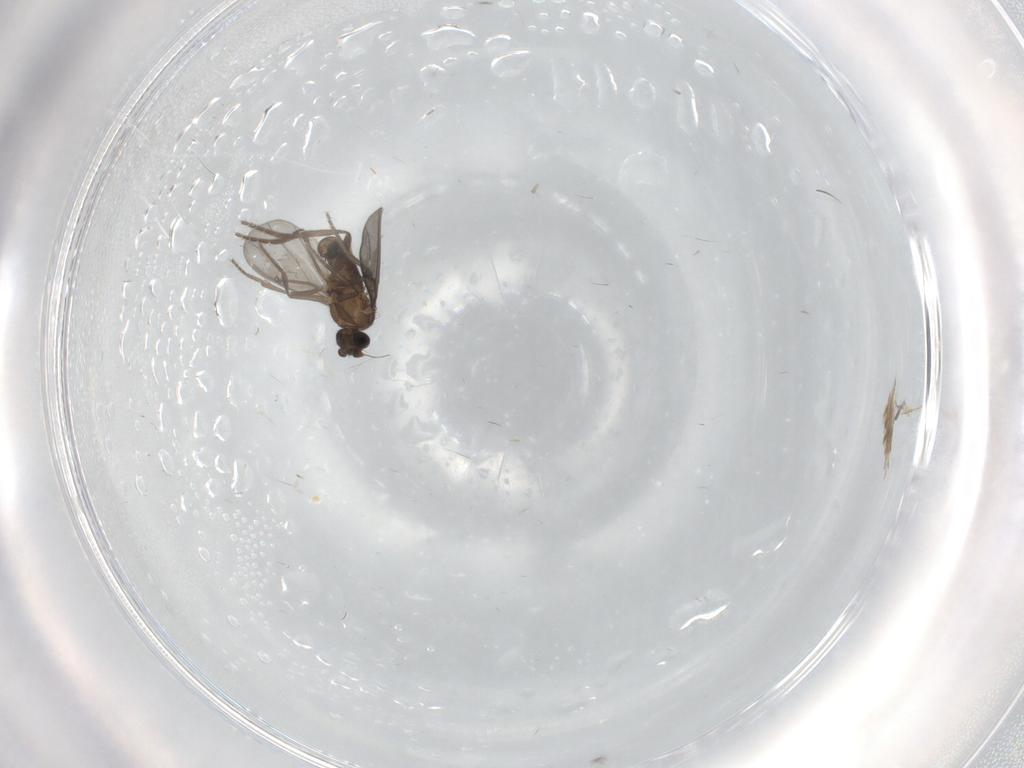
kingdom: Animalia
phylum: Arthropoda
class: Insecta
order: Diptera
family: Phoridae
